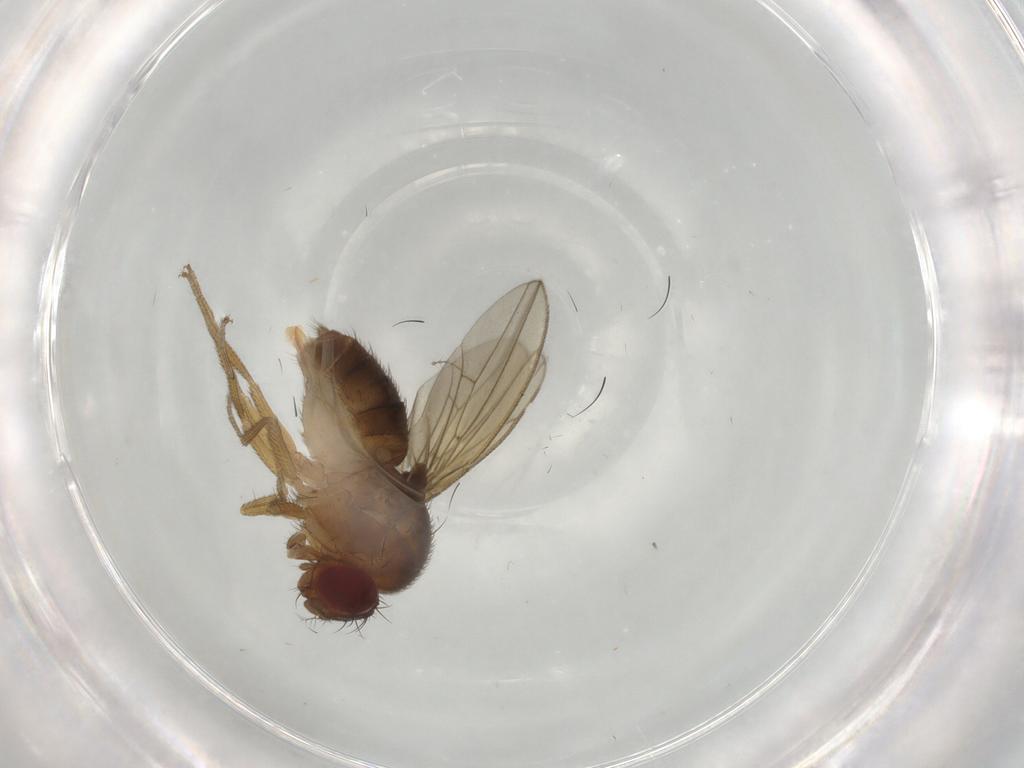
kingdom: Animalia
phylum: Arthropoda
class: Insecta
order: Diptera
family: Drosophilidae
